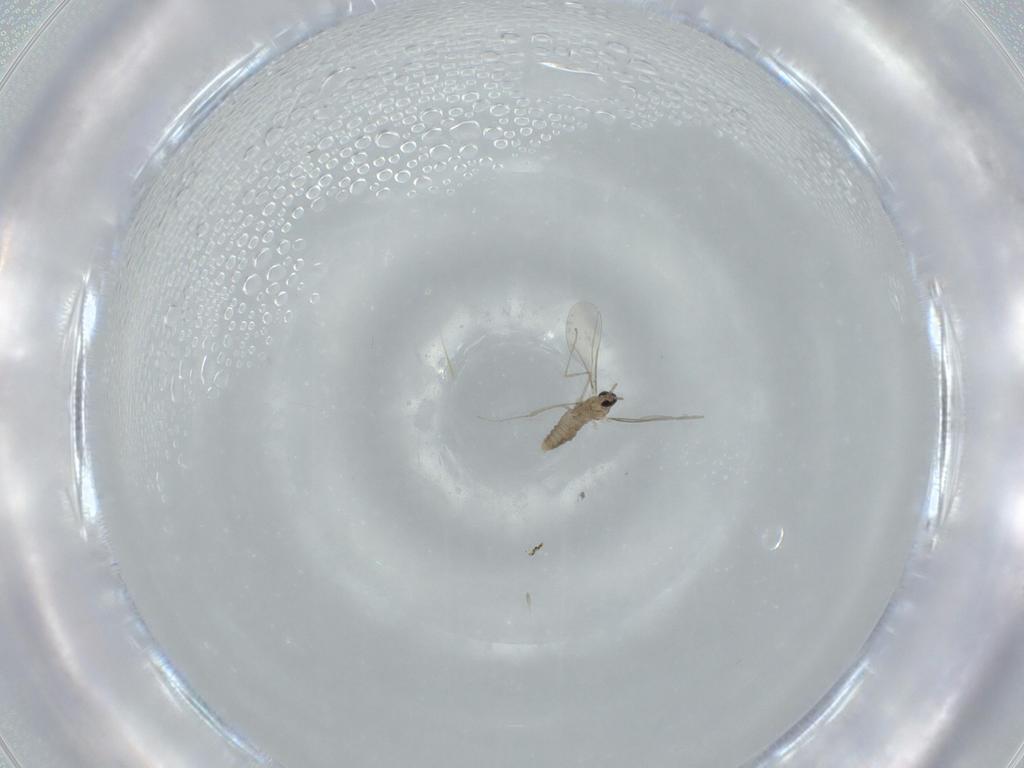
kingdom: Animalia
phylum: Arthropoda
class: Insecta
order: Diptera
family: Cecidomyiidae
